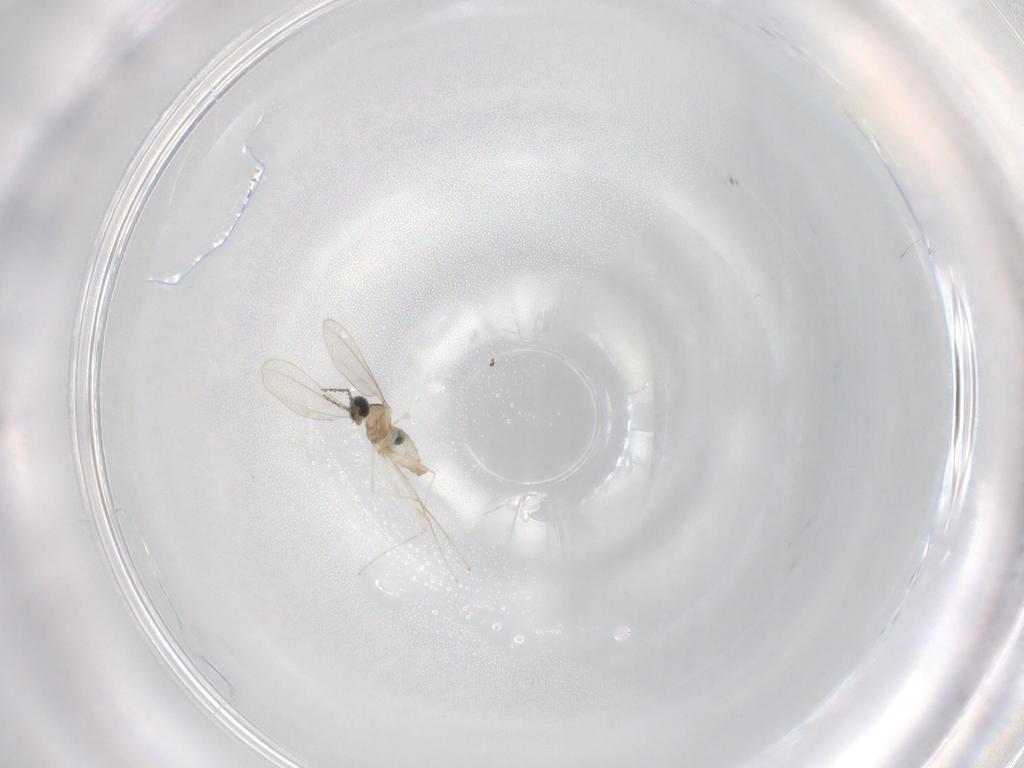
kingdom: Animalia
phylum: Arthropoda
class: Insecta
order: Diptera
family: Cecidomyiidae
